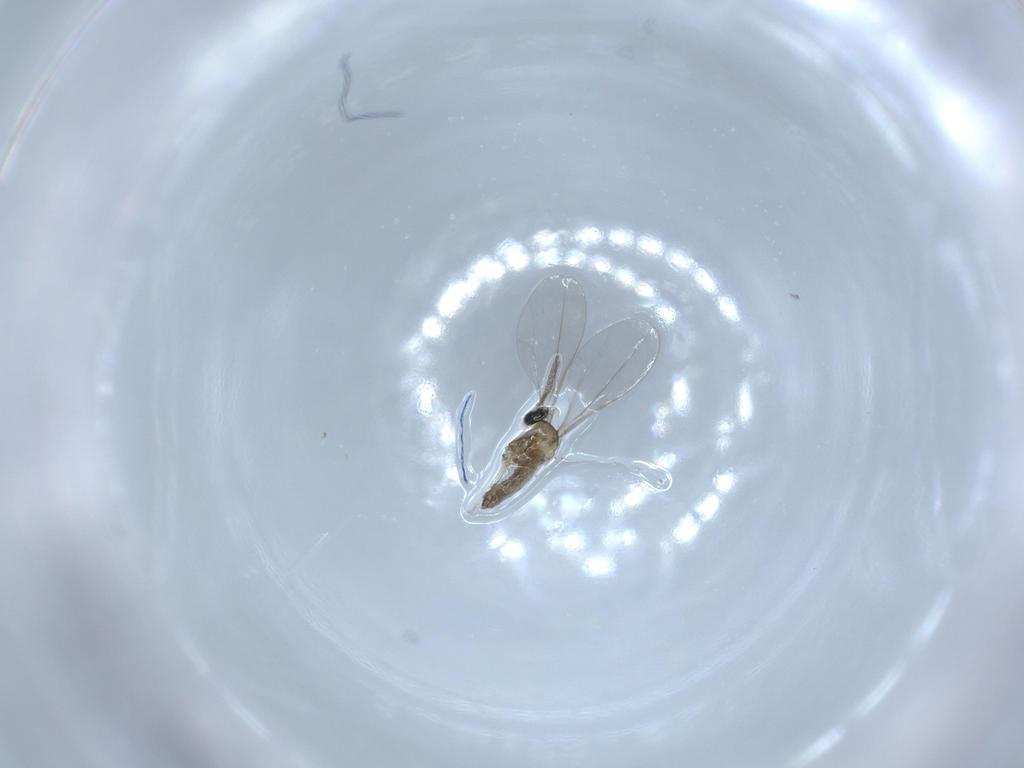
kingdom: Animalia
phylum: Arthropoda
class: Insecta
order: Diptera
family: Cecidomyiidae
